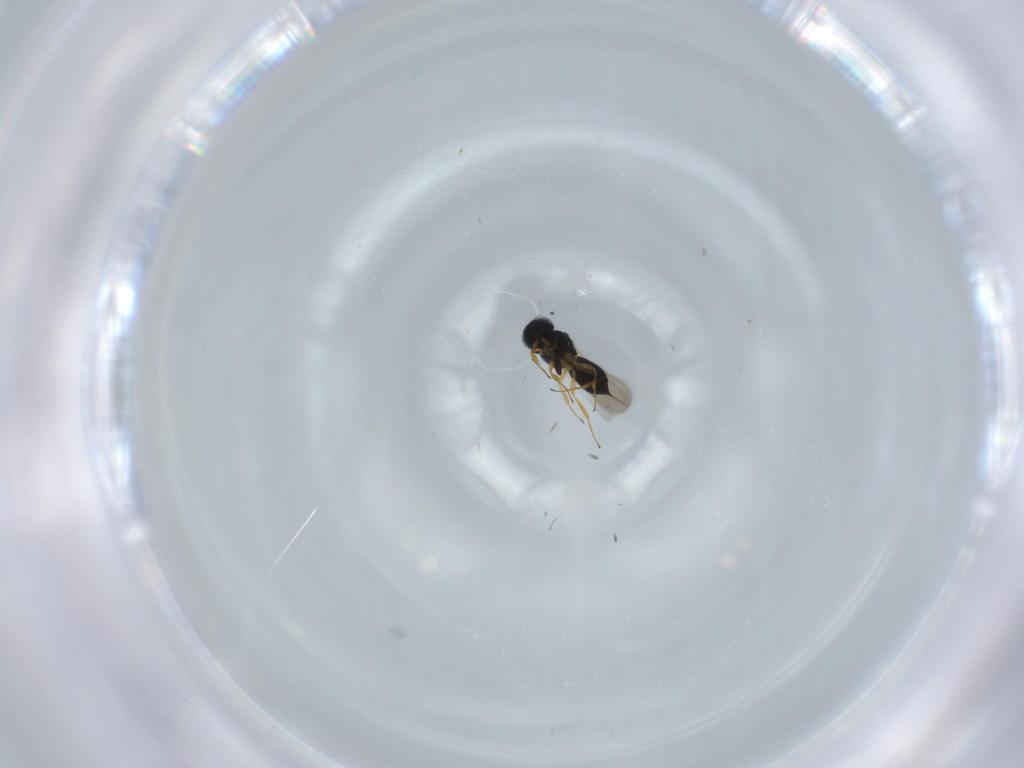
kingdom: Animalia
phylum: Arthropoda
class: Insecta
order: Hymenoptera
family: Scelionidae
